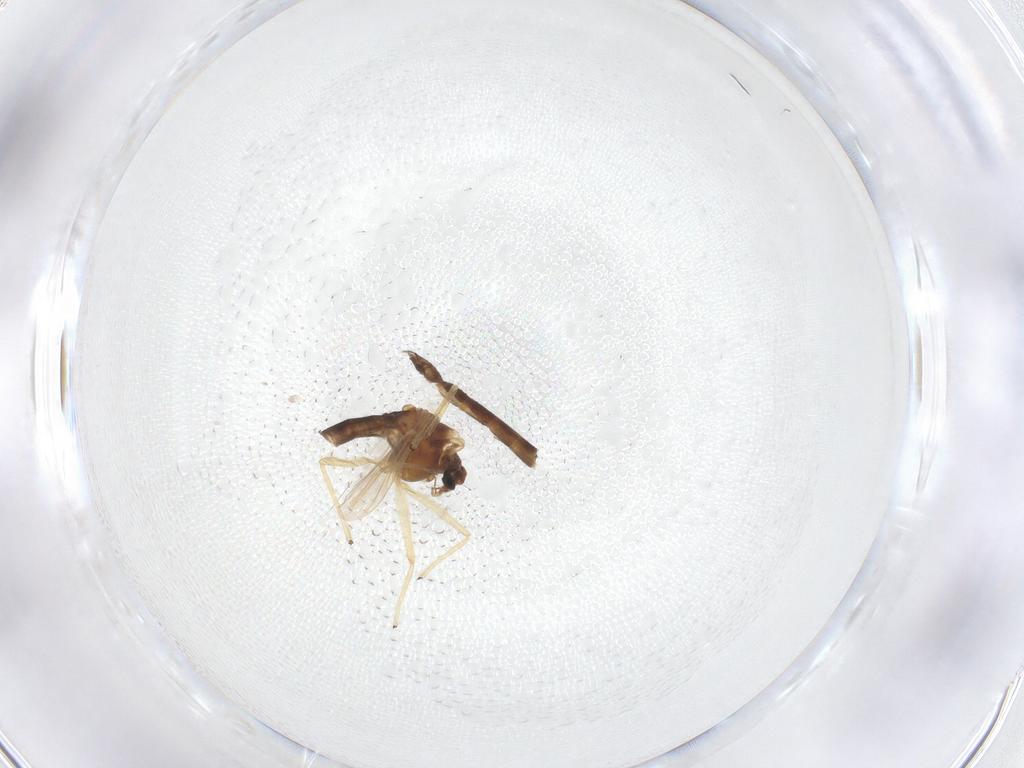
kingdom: Animalia
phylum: Arthropoda
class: Insecta
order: Diptera
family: Chironomidae
